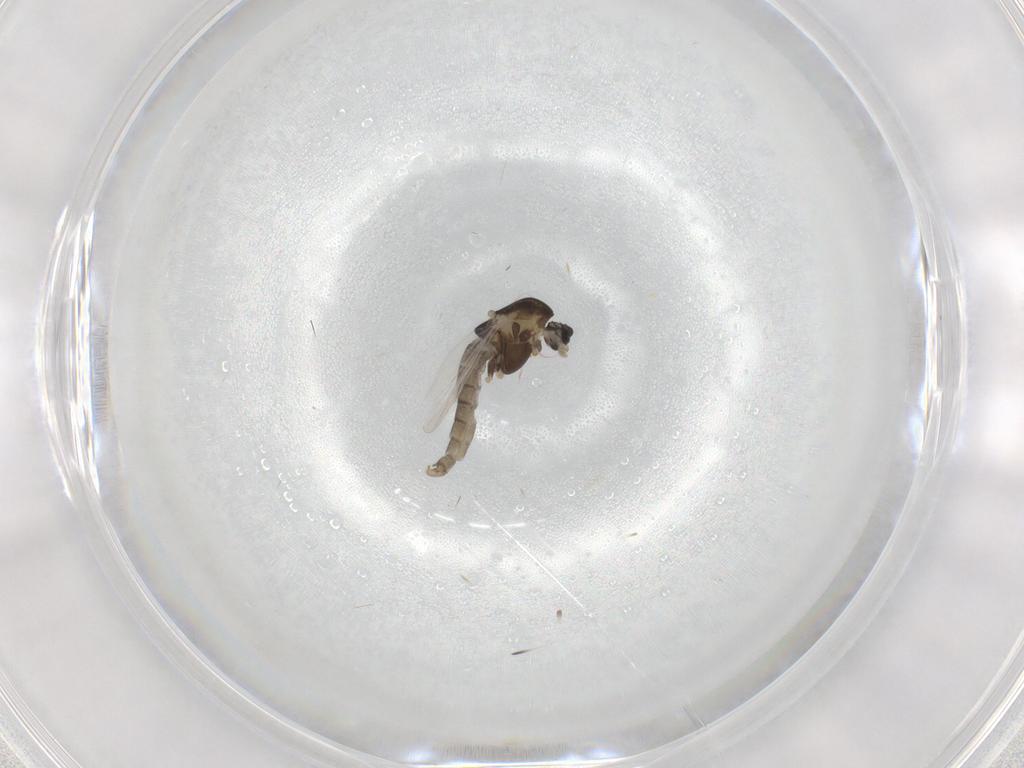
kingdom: Animalia
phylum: Arthropoda
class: Insecta
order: Diptera
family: Chironomidae
